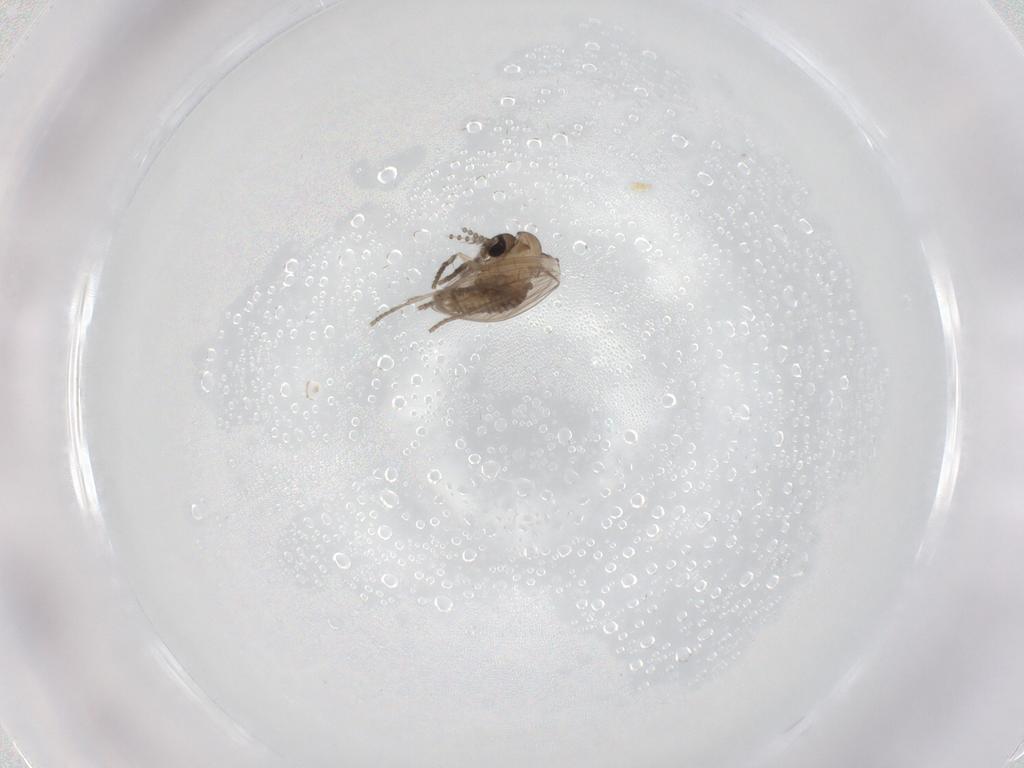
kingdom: Animalia
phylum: Arthropoda
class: Insecta
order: Diptera
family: Psychodidae
